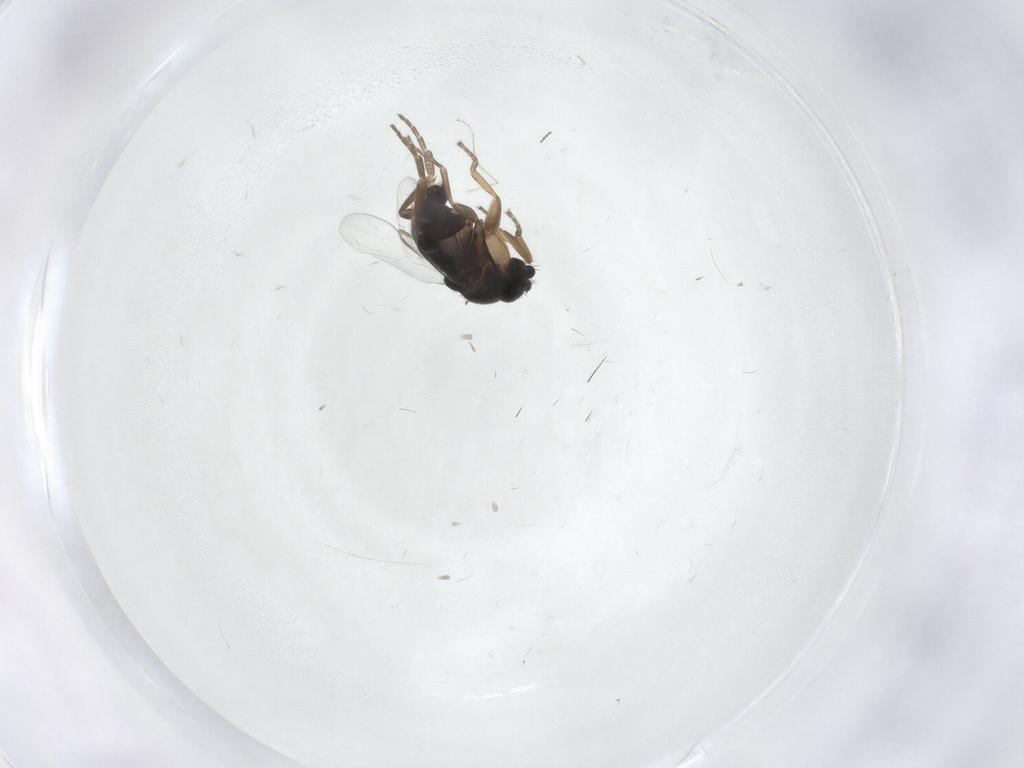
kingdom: Animalia
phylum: Arthropoda
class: Insecta
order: Diptera
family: Phoridae
